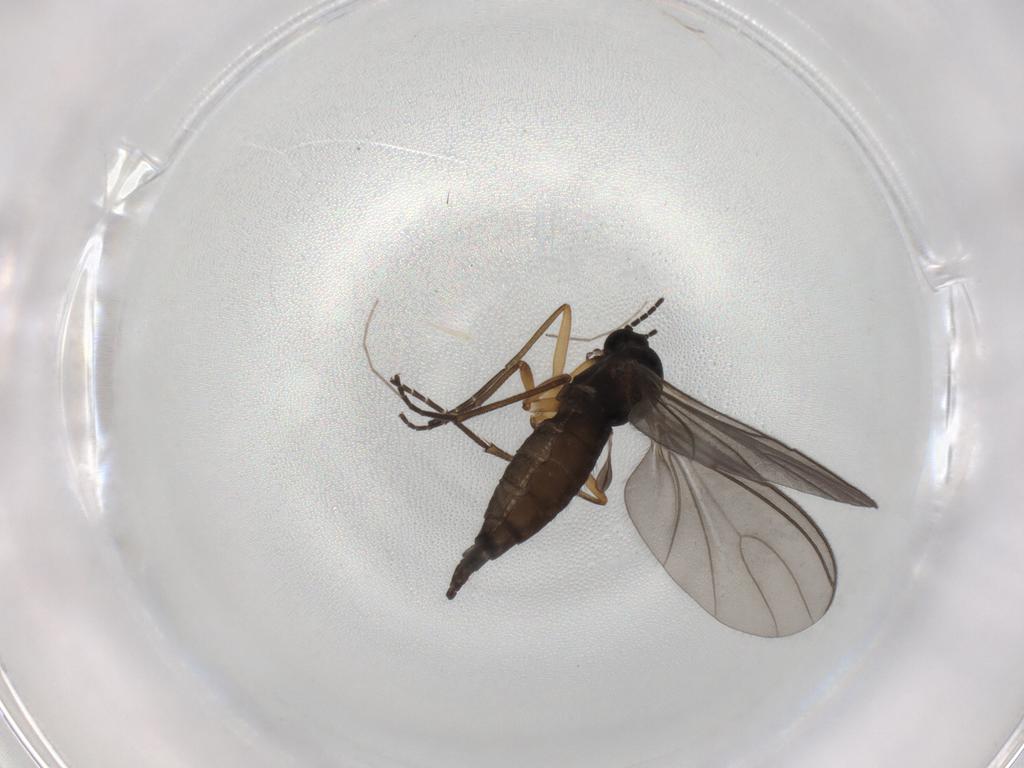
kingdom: Animalia
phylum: Arthropoda
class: Insecta
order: Diptera
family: Sciaridae
